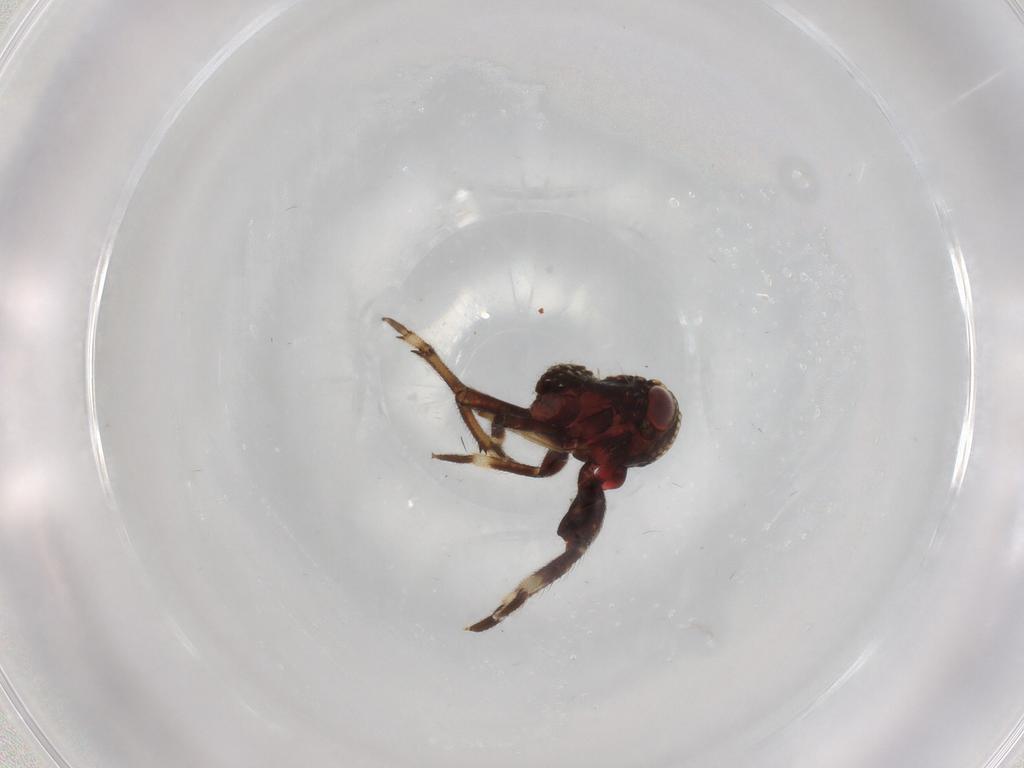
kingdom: Animalia
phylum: Arthropoda
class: Insecta
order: Hemiptera
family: Cixiidae
